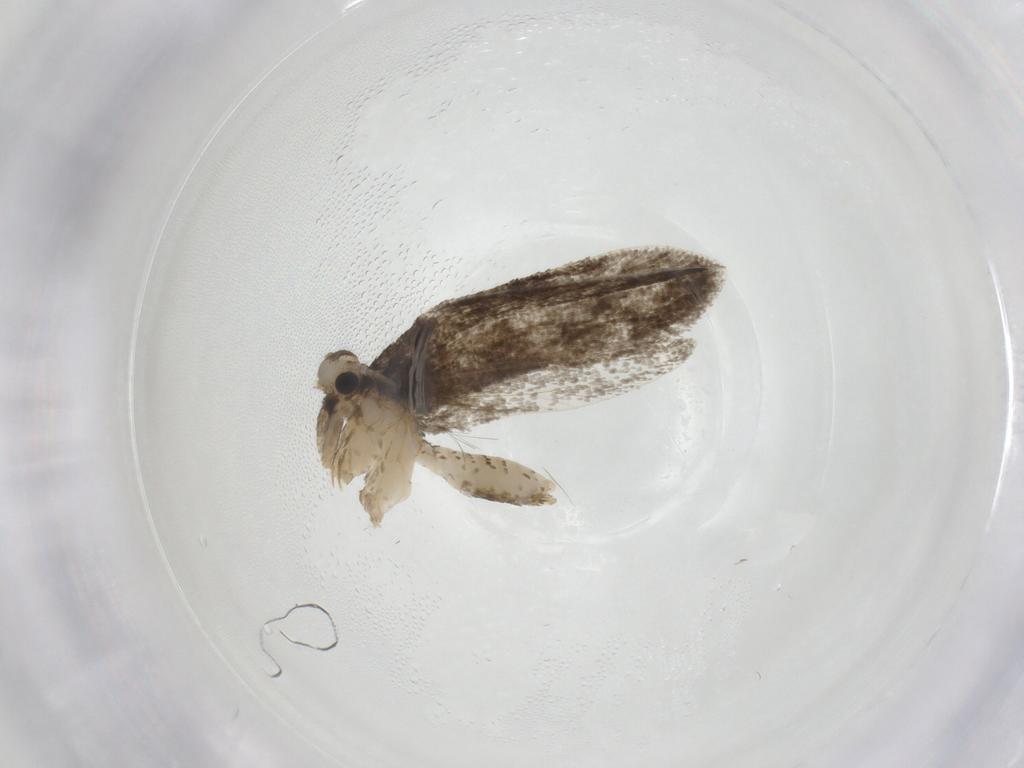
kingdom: Animalia
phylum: Arthropoda
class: Insecta
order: Lepidoptera
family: Psychidae
